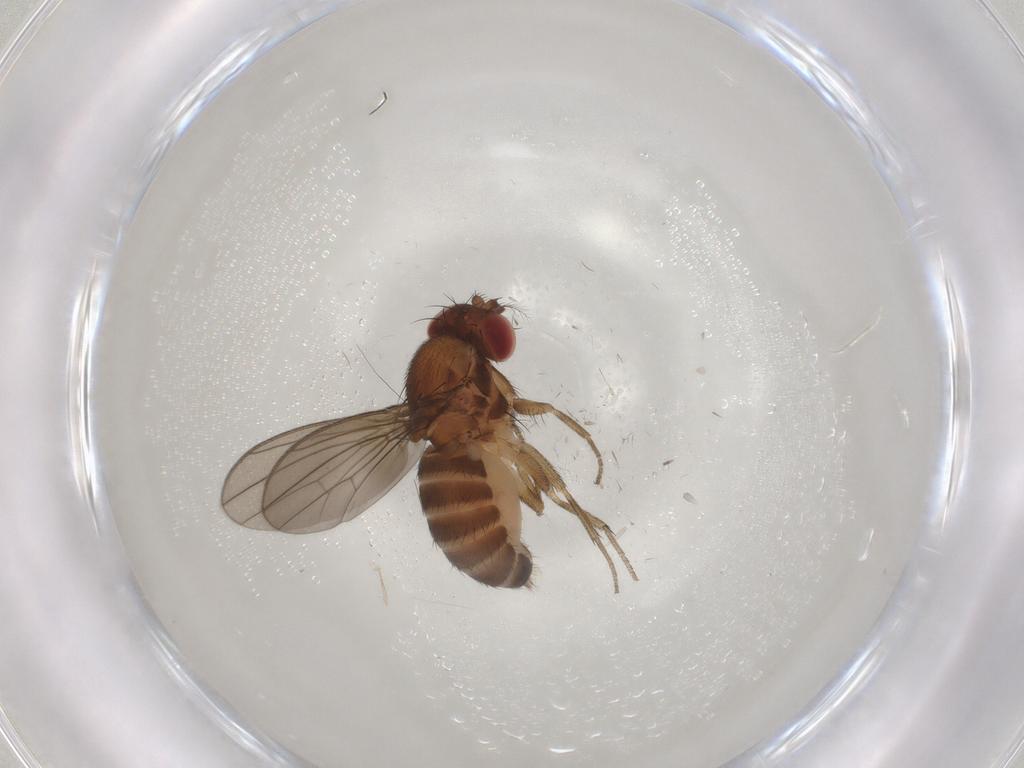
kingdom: Animalia
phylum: Arthropoda
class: Insecta
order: Diptera
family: Drosophilidae
